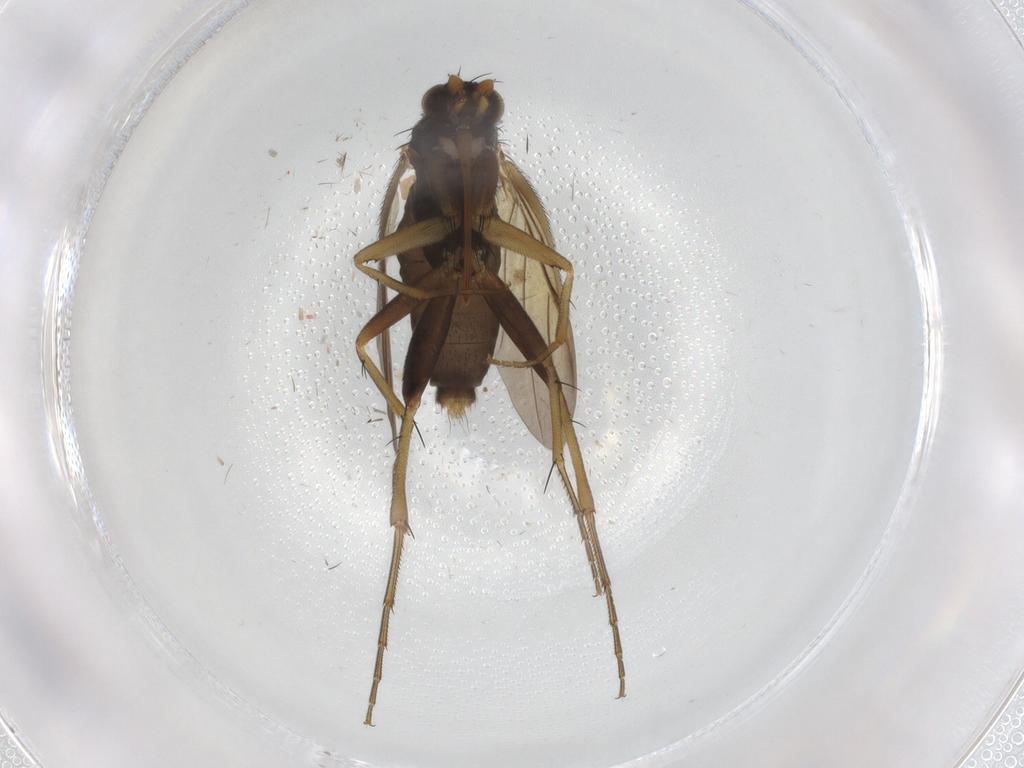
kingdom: Animalia
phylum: Arthropoda
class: Insecta
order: Diptera
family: Phoridae
